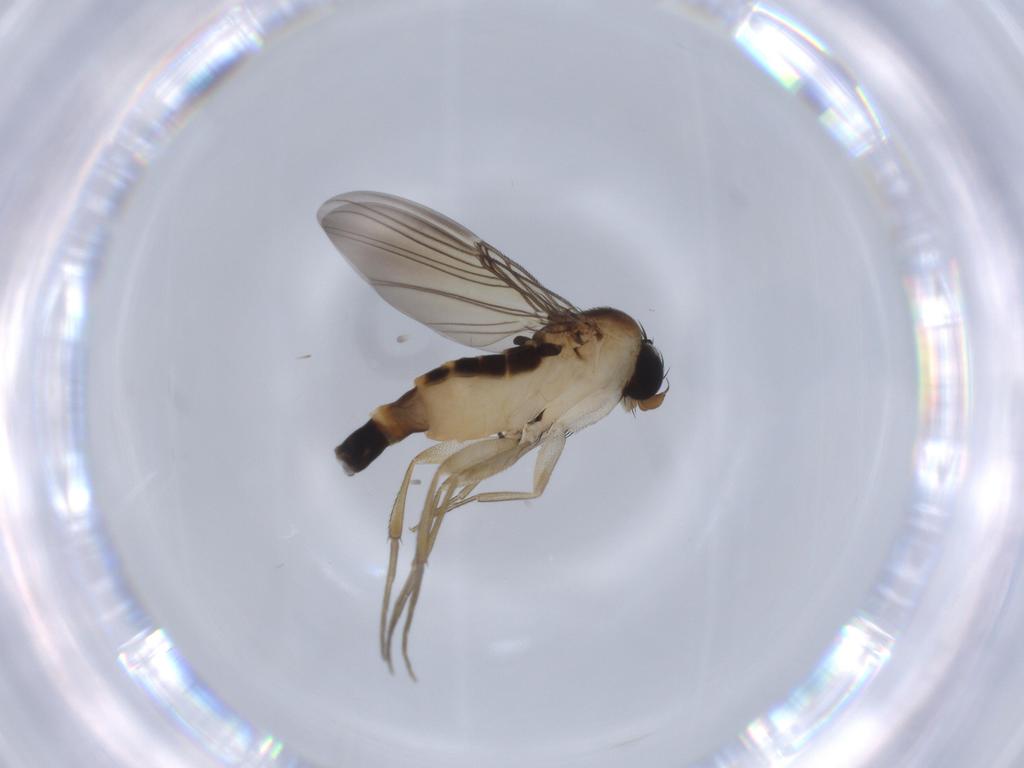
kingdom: Animalia
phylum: Arthropoda
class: Insecta
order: Diptera
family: Phoridae
